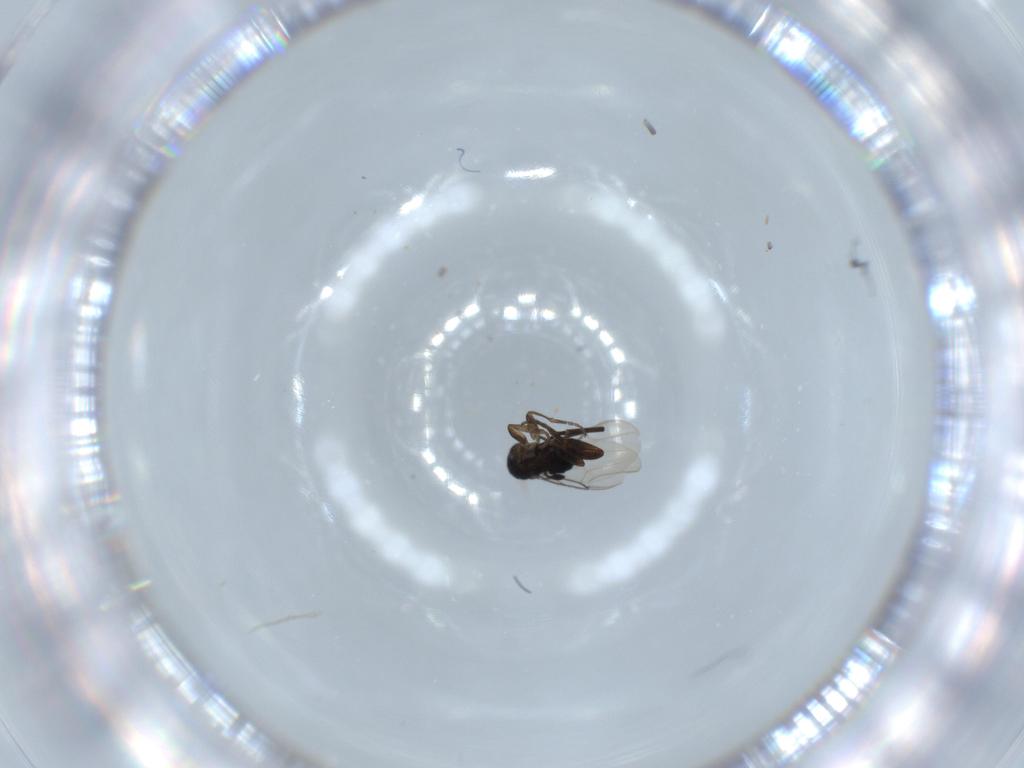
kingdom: Animalia
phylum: Arthropoda
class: Insecta
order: Diptera
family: Phoridae
